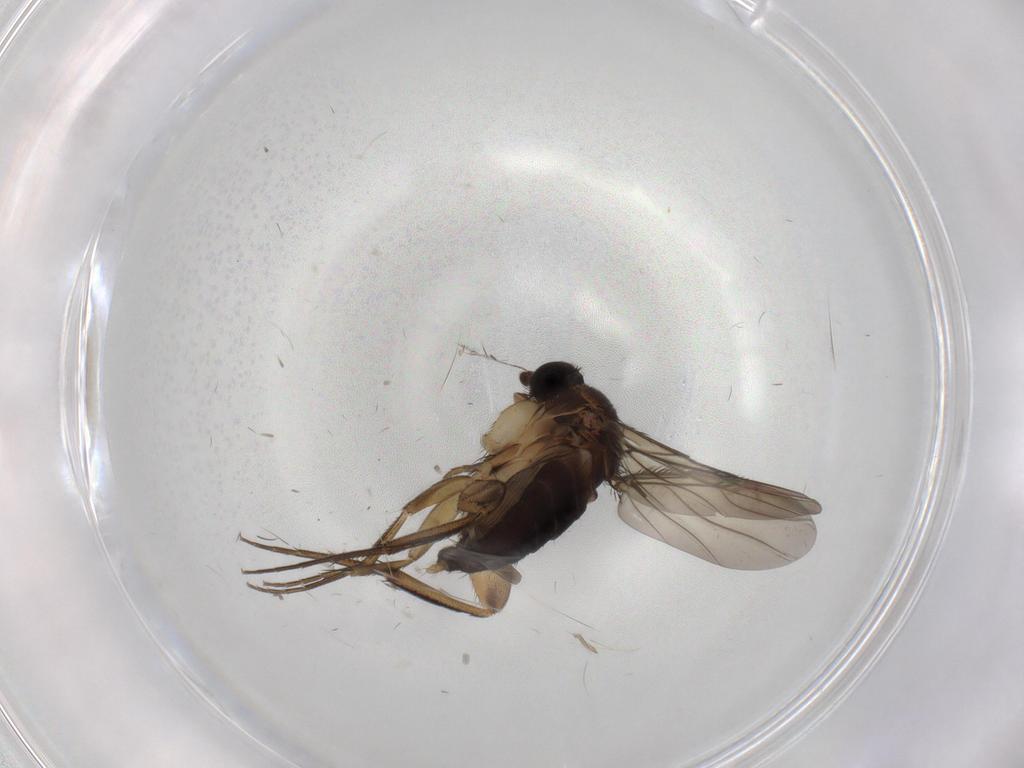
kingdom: Animalia
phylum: Arthropoda
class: Insecta
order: Diptera
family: Phoridae
